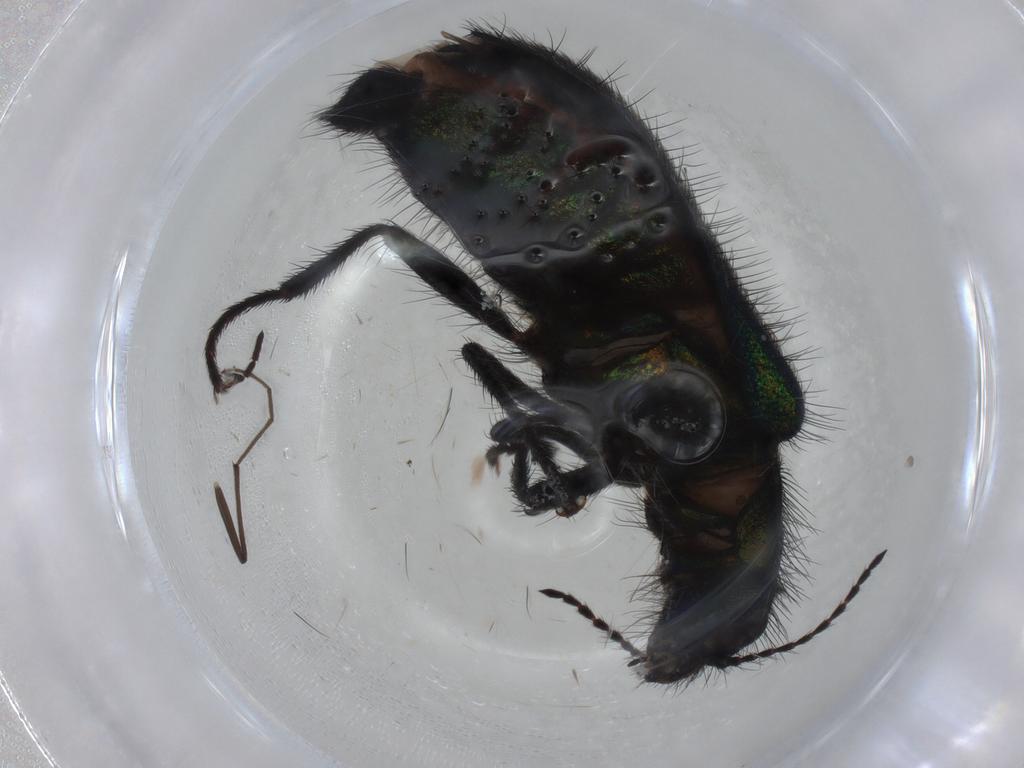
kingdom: Animalia
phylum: Arthropoda
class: Insecta
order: Coleoptera
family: Melyridae
